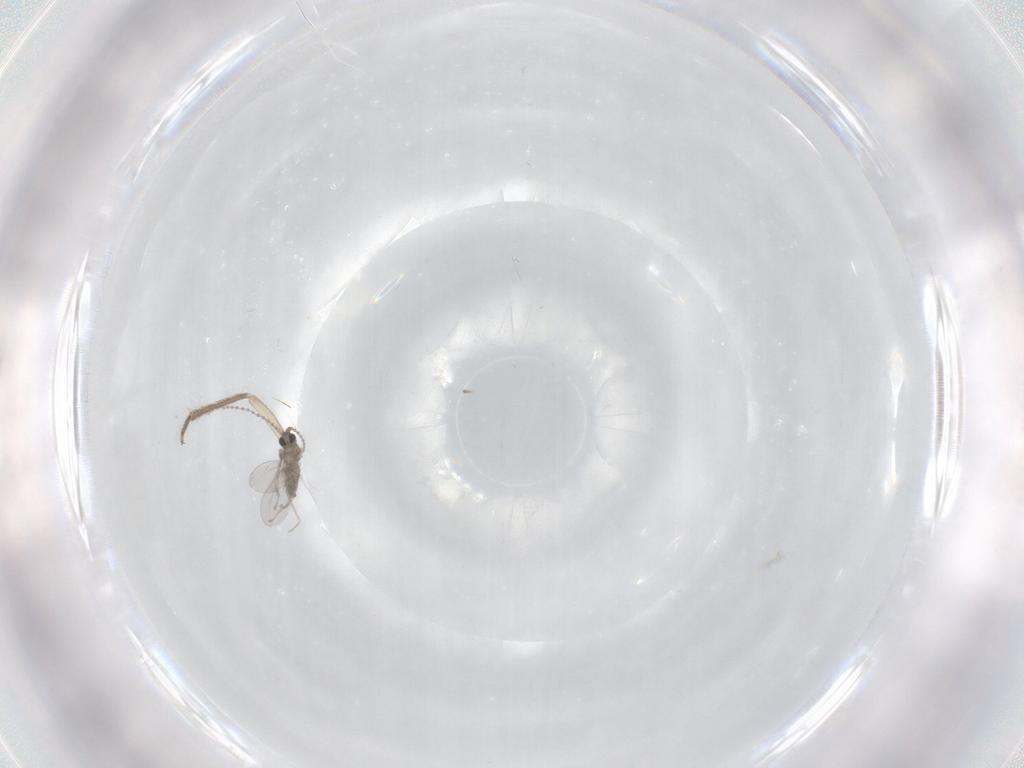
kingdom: Animalia
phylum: Arthropoda
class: Insecta
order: Diptera
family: Cecidomyiidae
